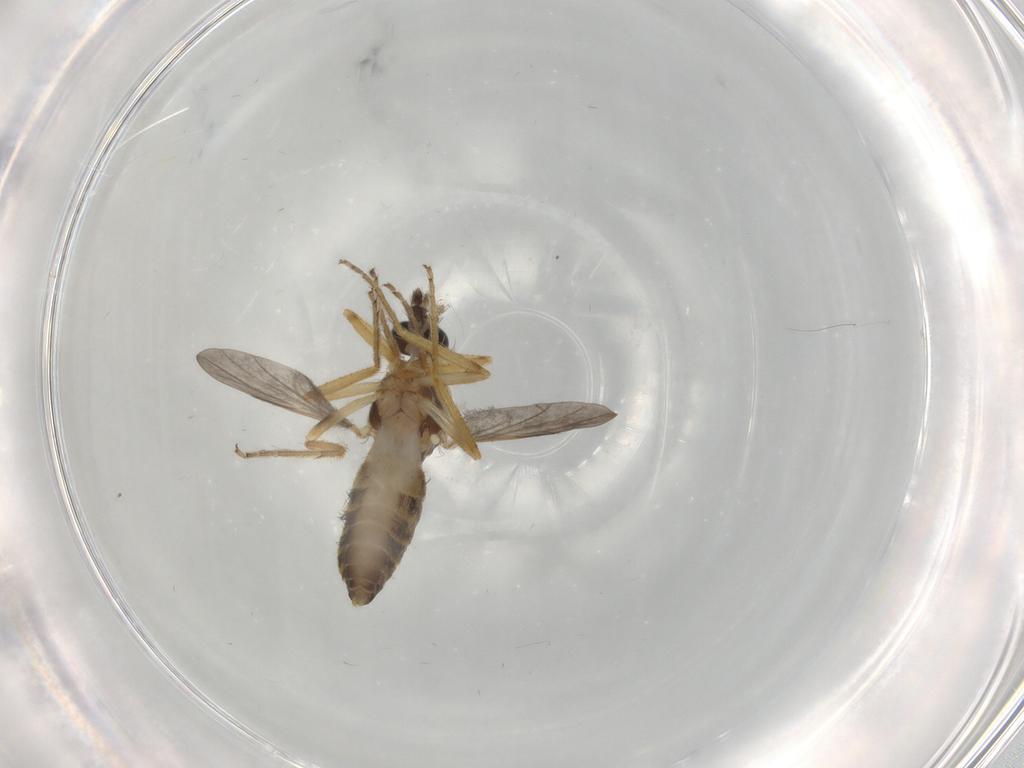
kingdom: Animalia
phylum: Arthropoda
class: Insecta
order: Diptera
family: Ceratopogonidae
